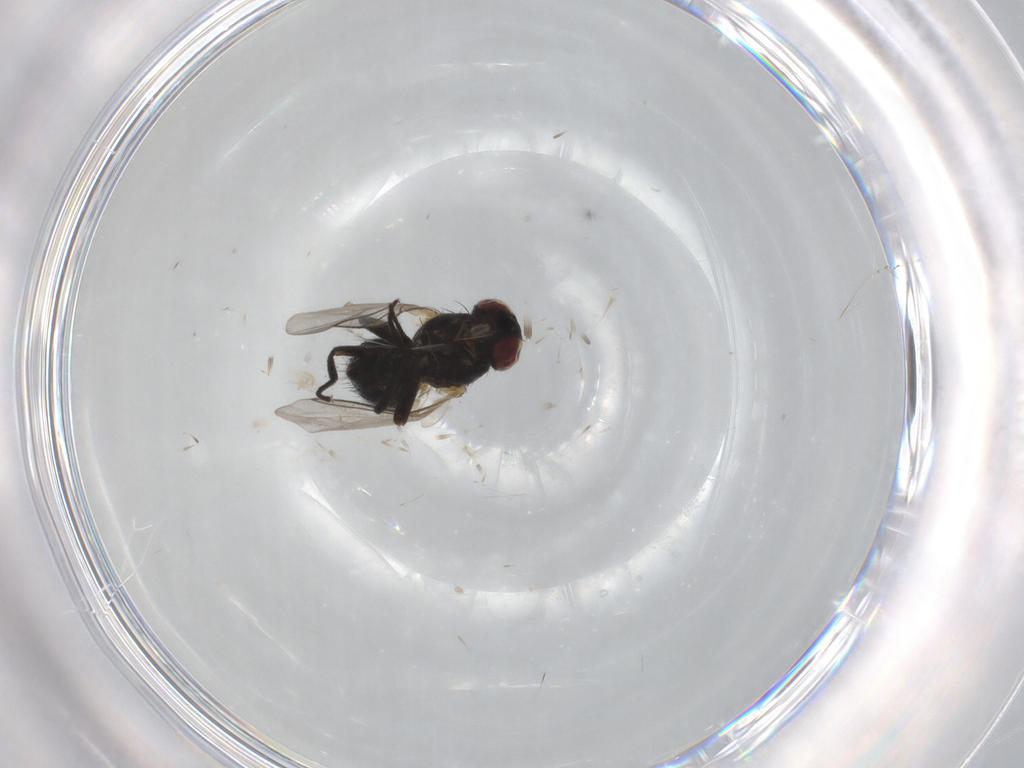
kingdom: Animalia
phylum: Arthropoda
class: Insecta
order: Diptera
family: Agromyzidae
